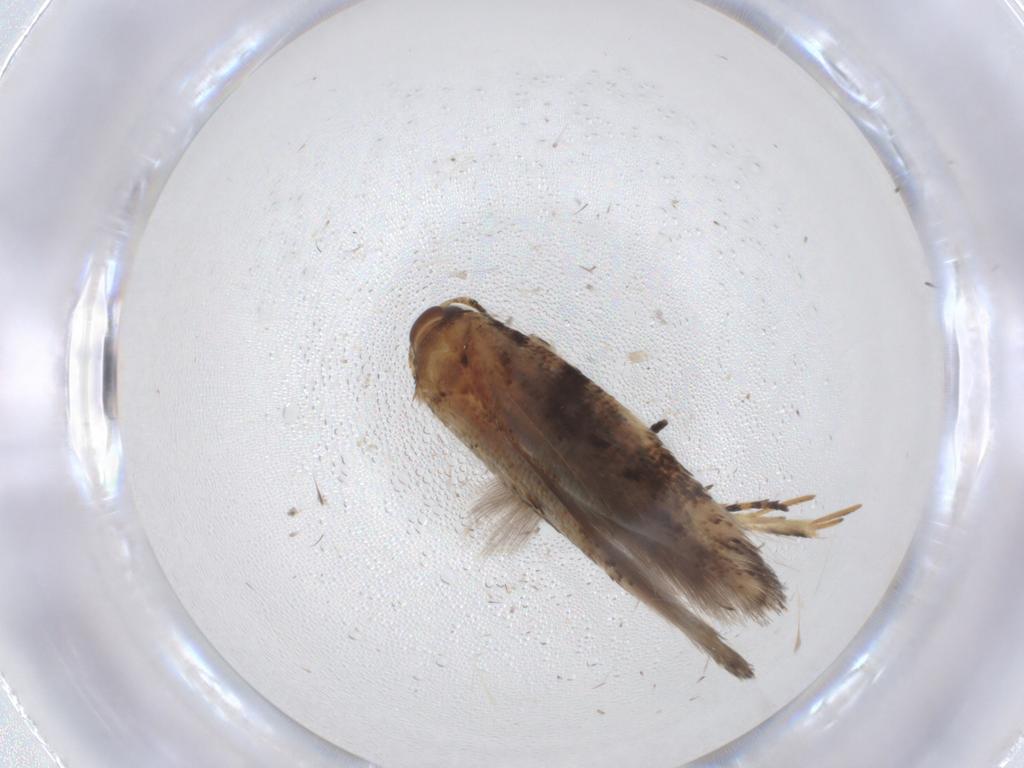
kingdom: Animalia
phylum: Arthropoda
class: Insecta
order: Lepidoptera
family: Gelechiidae
